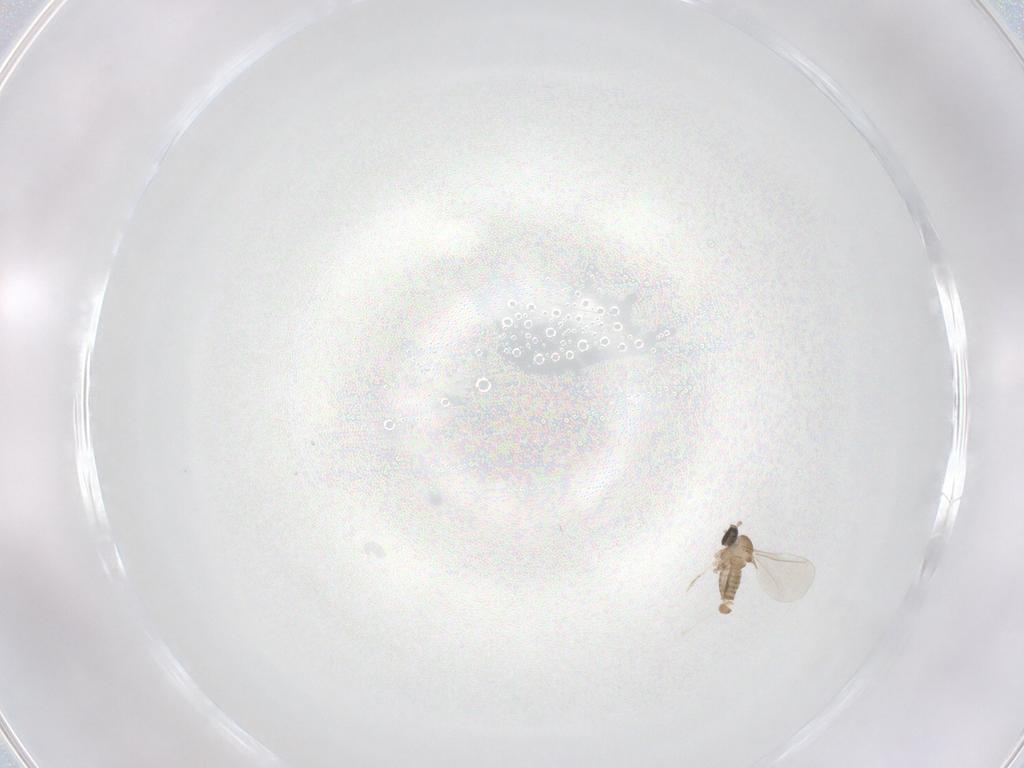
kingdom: Animalia
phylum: Arthropoda
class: Insecta
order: Diptera
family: Cecidomyiidae
